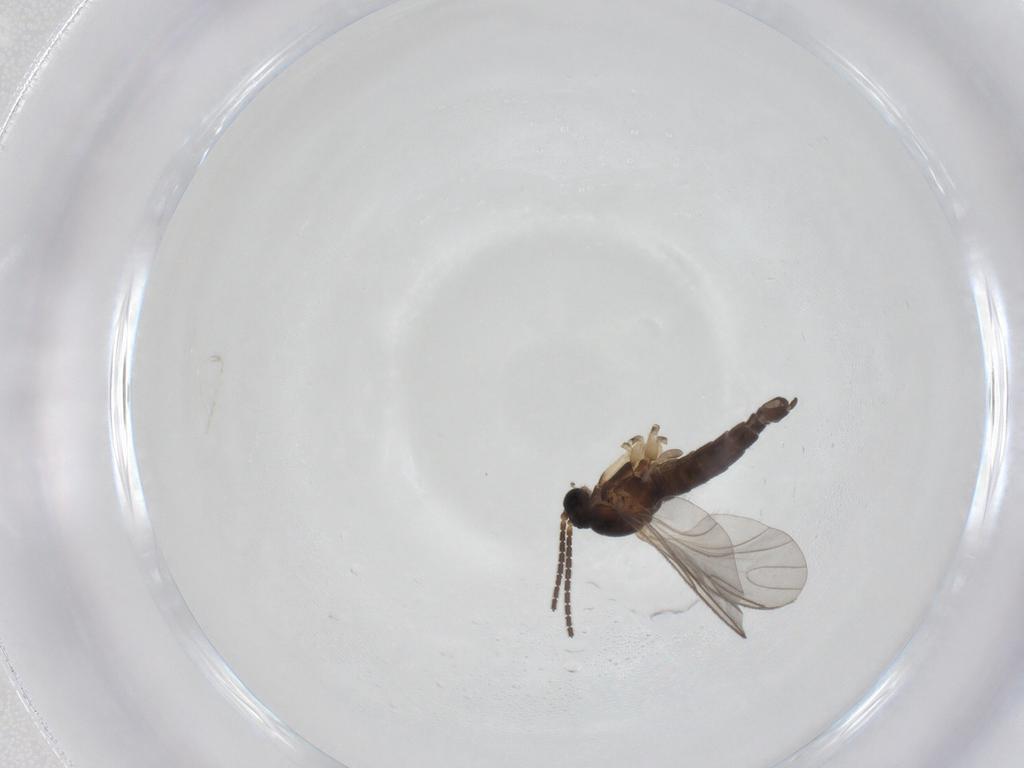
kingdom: Animalia
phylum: Arthropoda
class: Insecta
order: Diptera
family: Sciaridae
